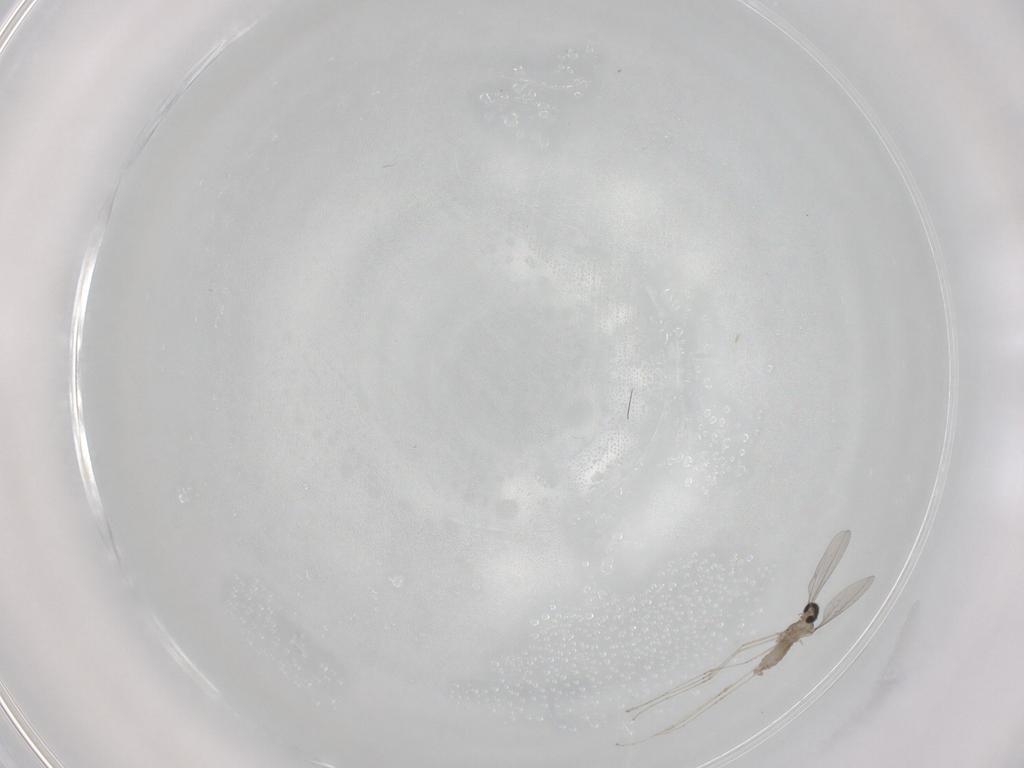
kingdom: Animalia
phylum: Arthropoda
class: Insecta
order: Diptera
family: Cecidomyiidae
